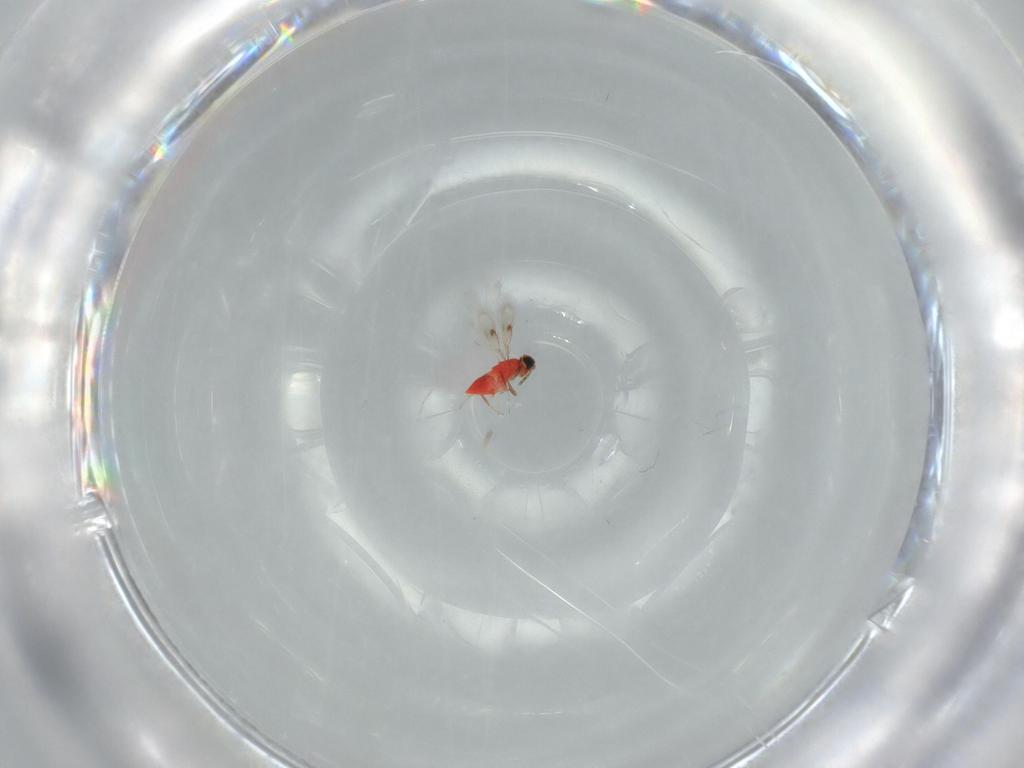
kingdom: Animalia
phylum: Arthropoda
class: Insecta
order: Hymenoptera
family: Trichogrammatidae
